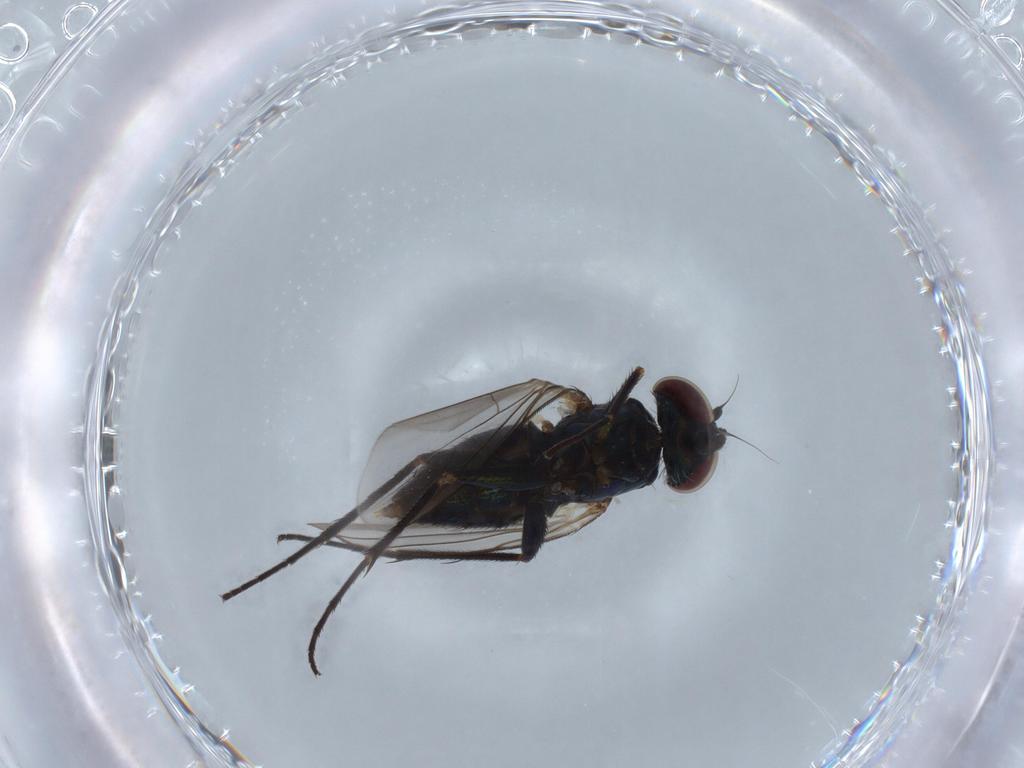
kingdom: Animalia
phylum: Arthropoda
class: Insecta
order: Diptera
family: Dolichopodidae
